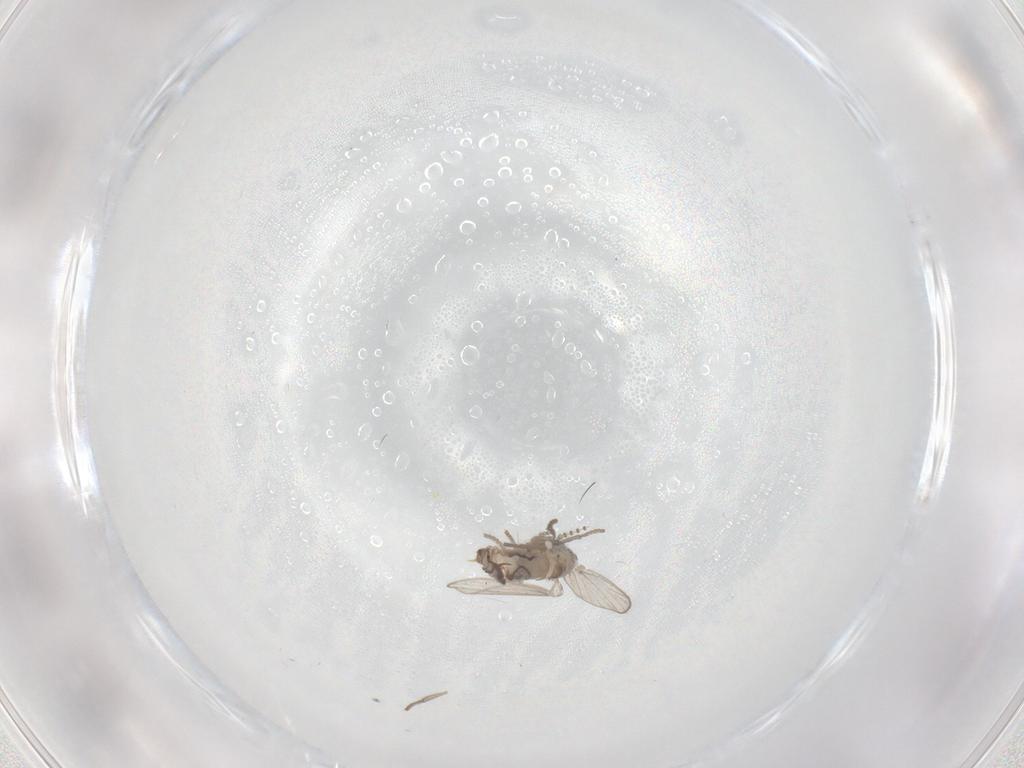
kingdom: Animalia
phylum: Arthropoda
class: Insecta
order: Diptera
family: Psychodidae
